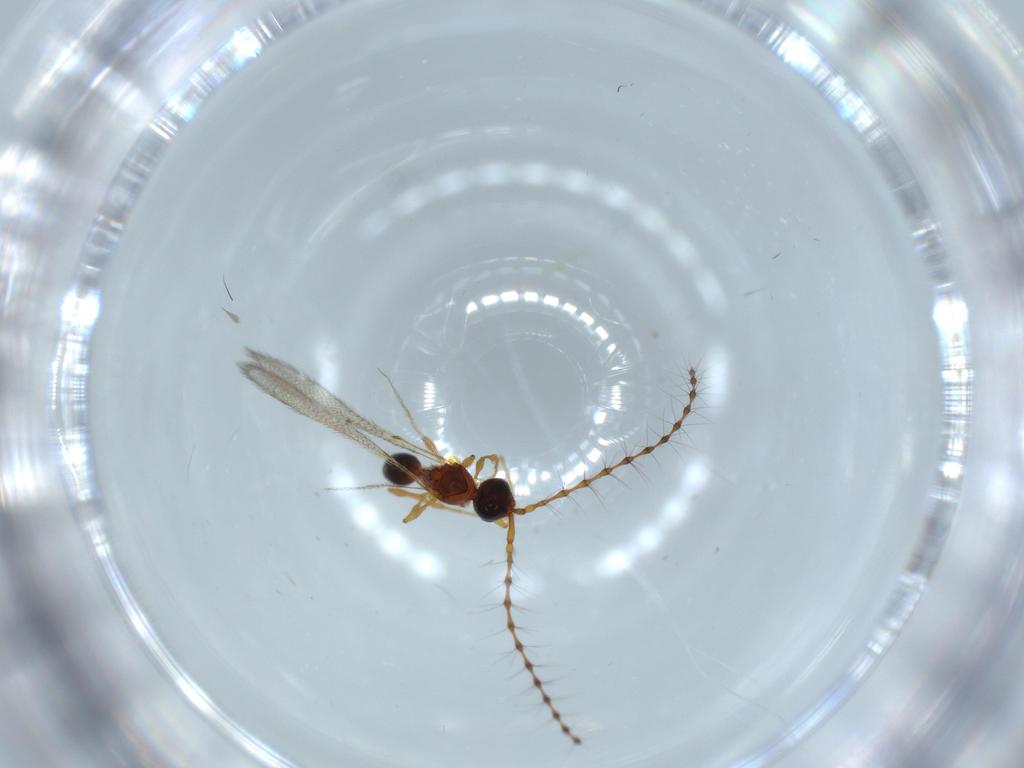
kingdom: Animalia
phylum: Arthropoda
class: Insecta
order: Hymenoptera
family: Diapriidae
